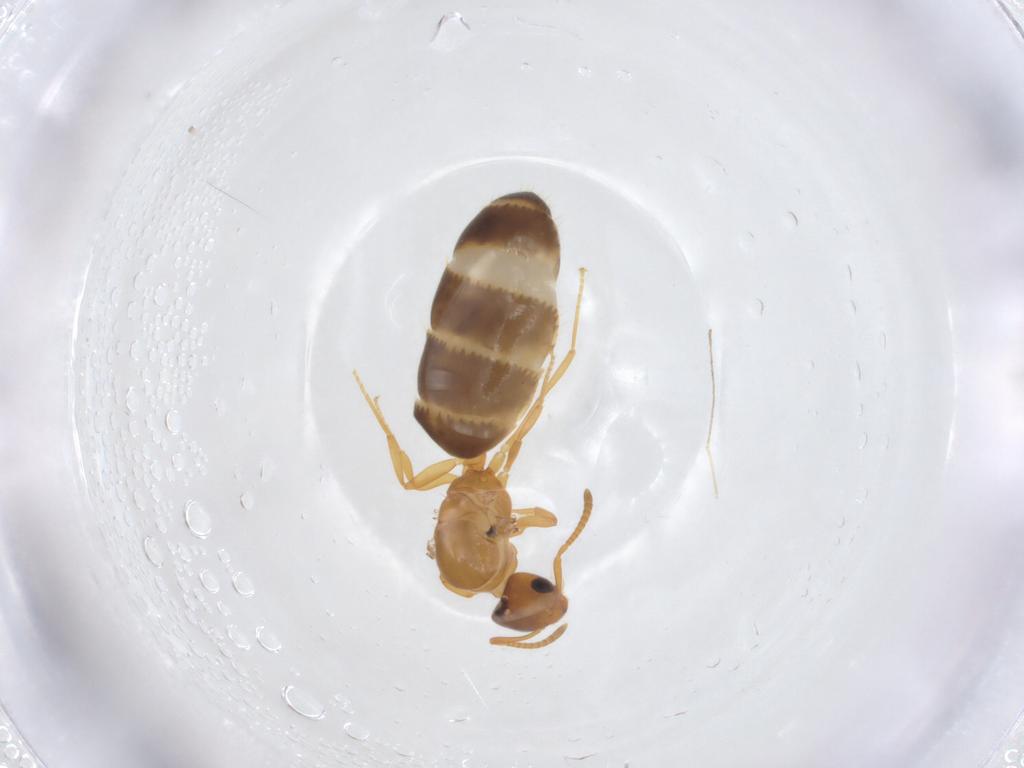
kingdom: Animalia
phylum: Arthropoda
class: Insecta
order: Hymenoptera
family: Formicidae
